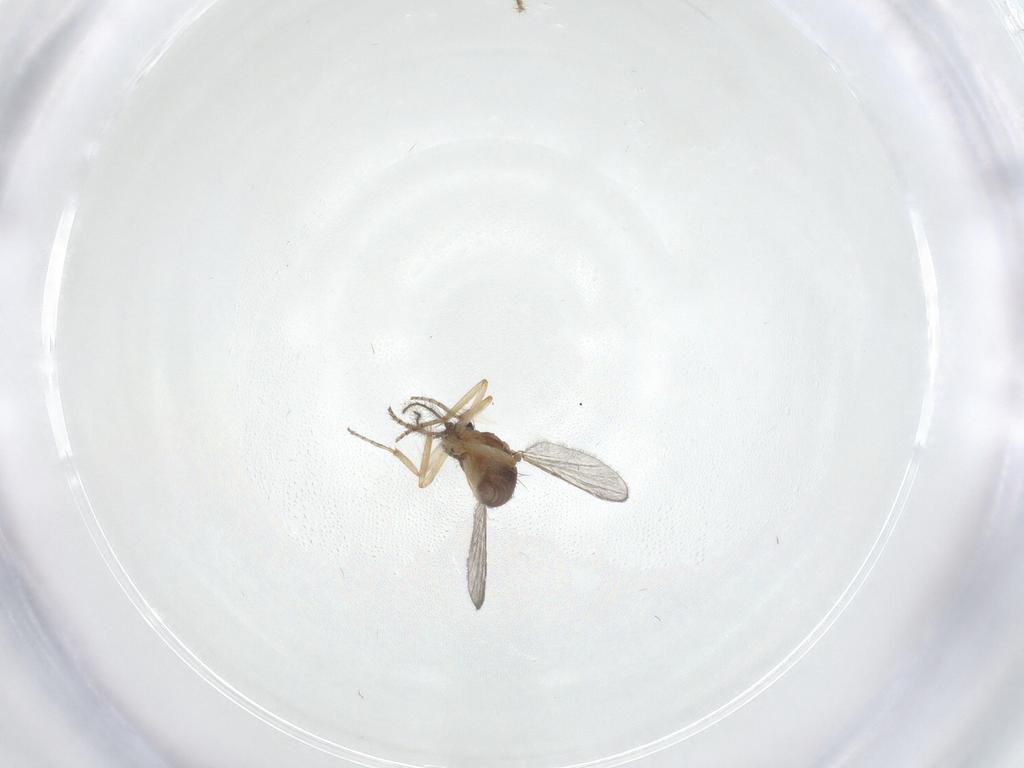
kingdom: Animalia
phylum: Arthropoda
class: Insecta
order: Diptera
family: Ceratopogonidae
